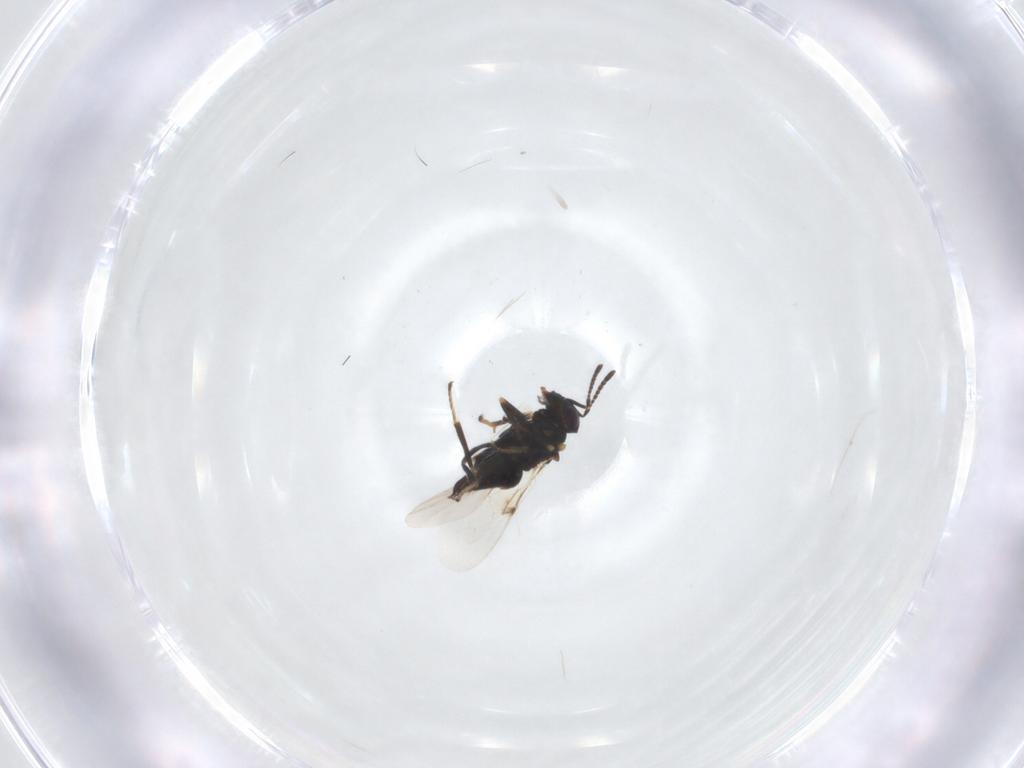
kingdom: Animalia
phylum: Arthropoda
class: Insecta
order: Hymenoptera
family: Encyrtidae
